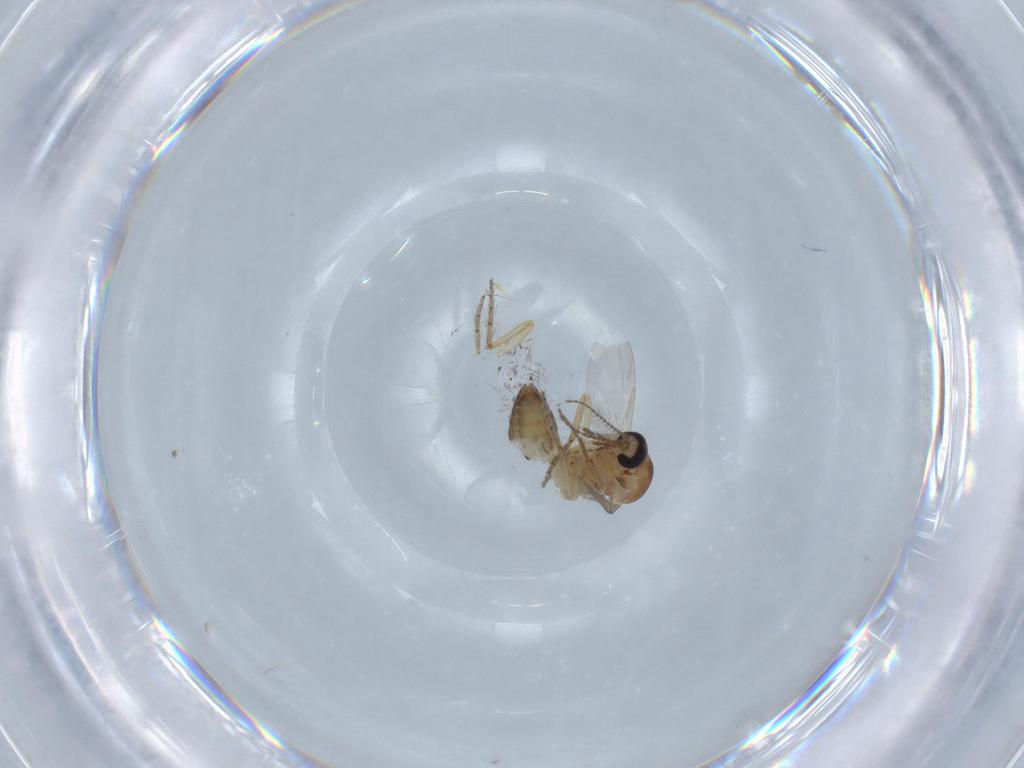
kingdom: Animalia
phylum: Arthropoda
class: Insecta
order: Diptera
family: Ceratopogonidae
